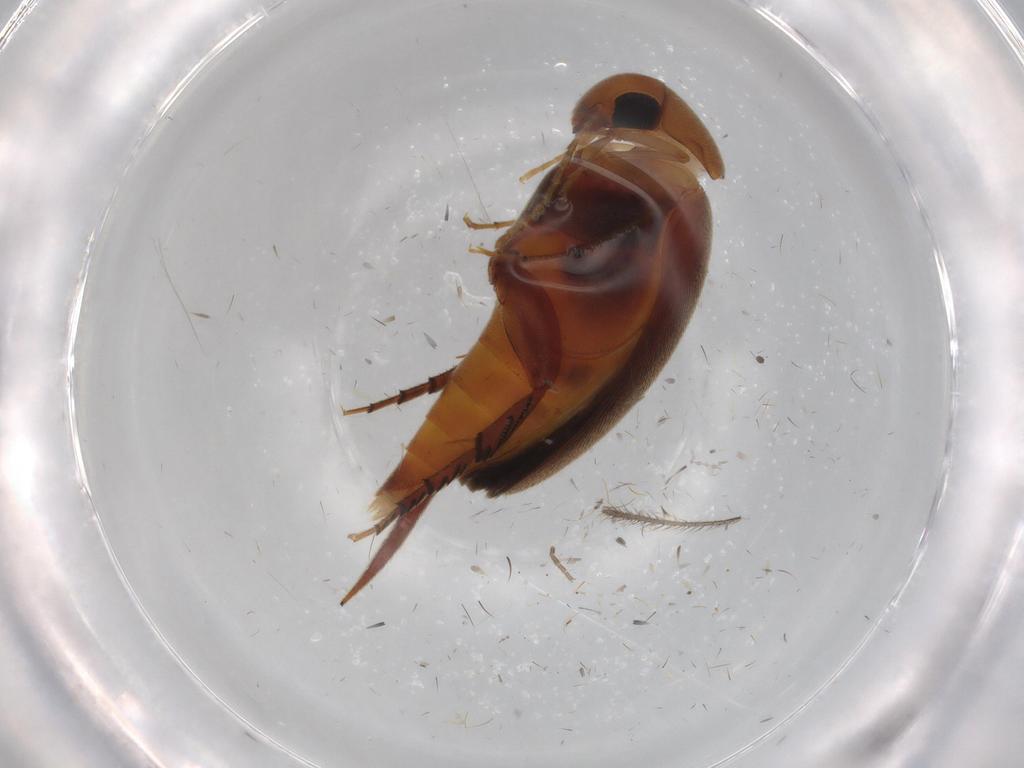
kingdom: Animalia
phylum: Arthropoda
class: Insecta
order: Coleoptera
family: Mordellidae
